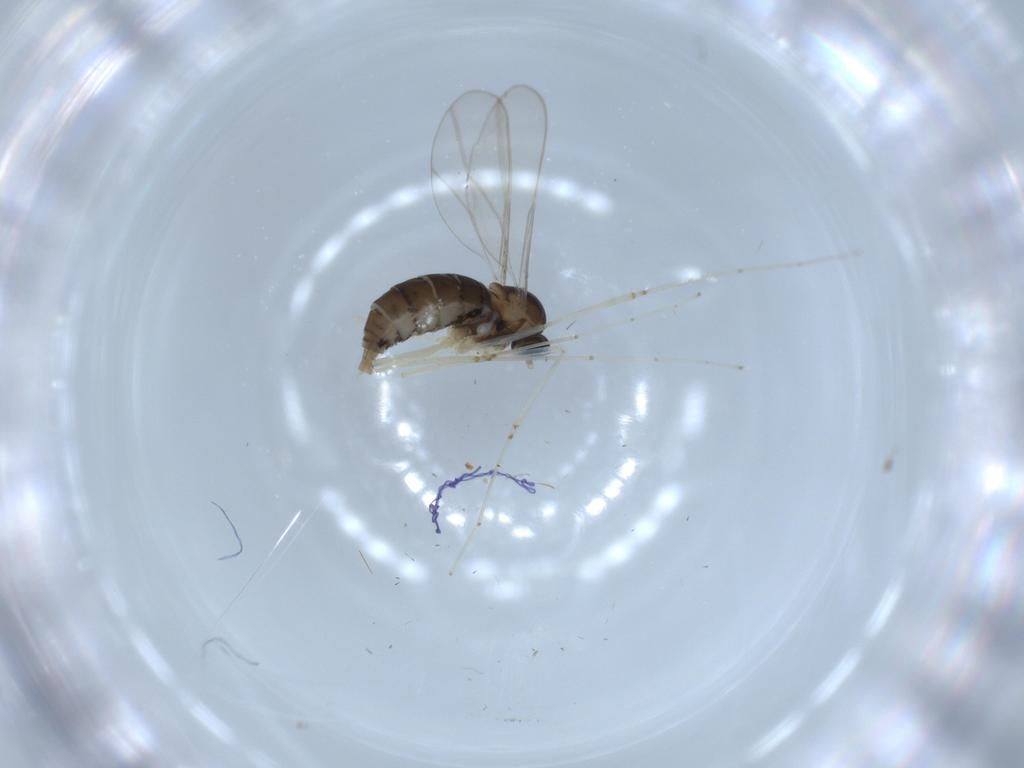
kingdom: Animalia
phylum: Arthropoda
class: Insecta
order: Diptera
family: Cecidomyiidae
